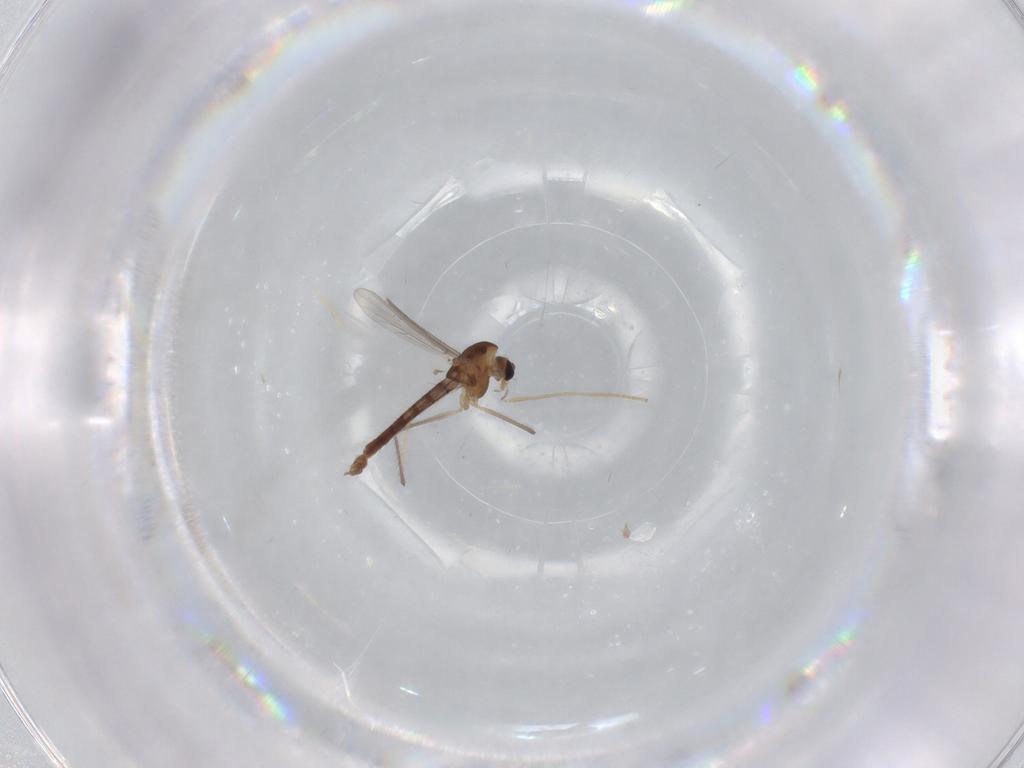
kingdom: Animalia
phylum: Arthropoda
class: Insecta
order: Diptera
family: Chironomidae
